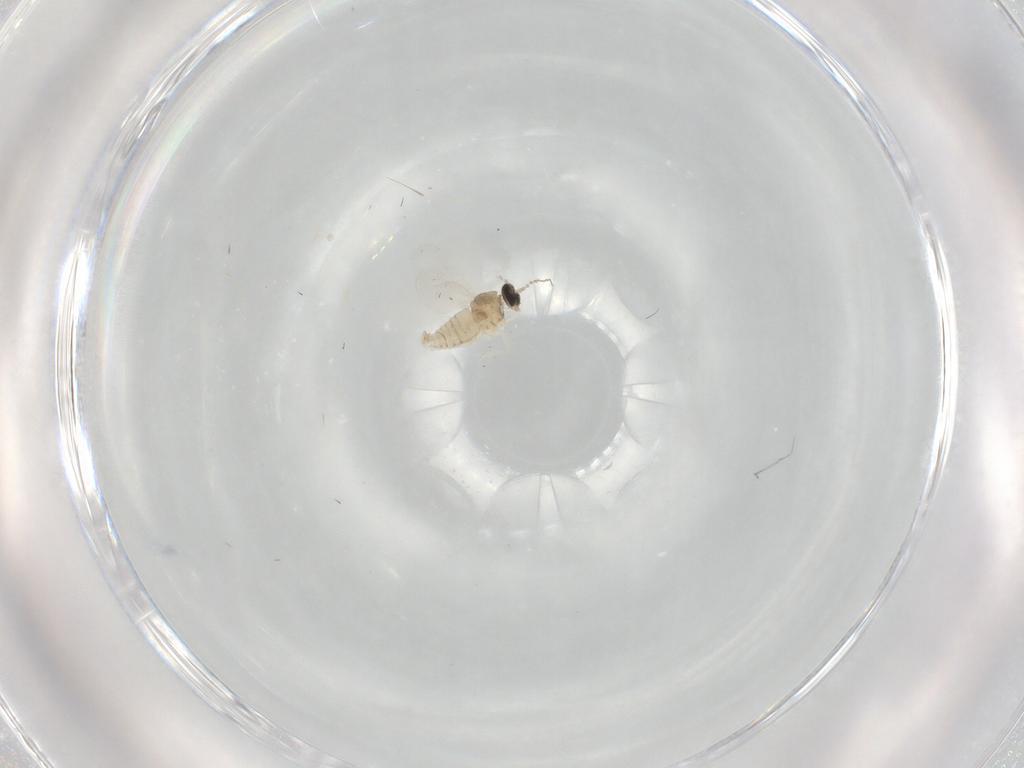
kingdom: Animalia
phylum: Arthropoda
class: Insecta
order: Diptera
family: Cecidomyiidae
